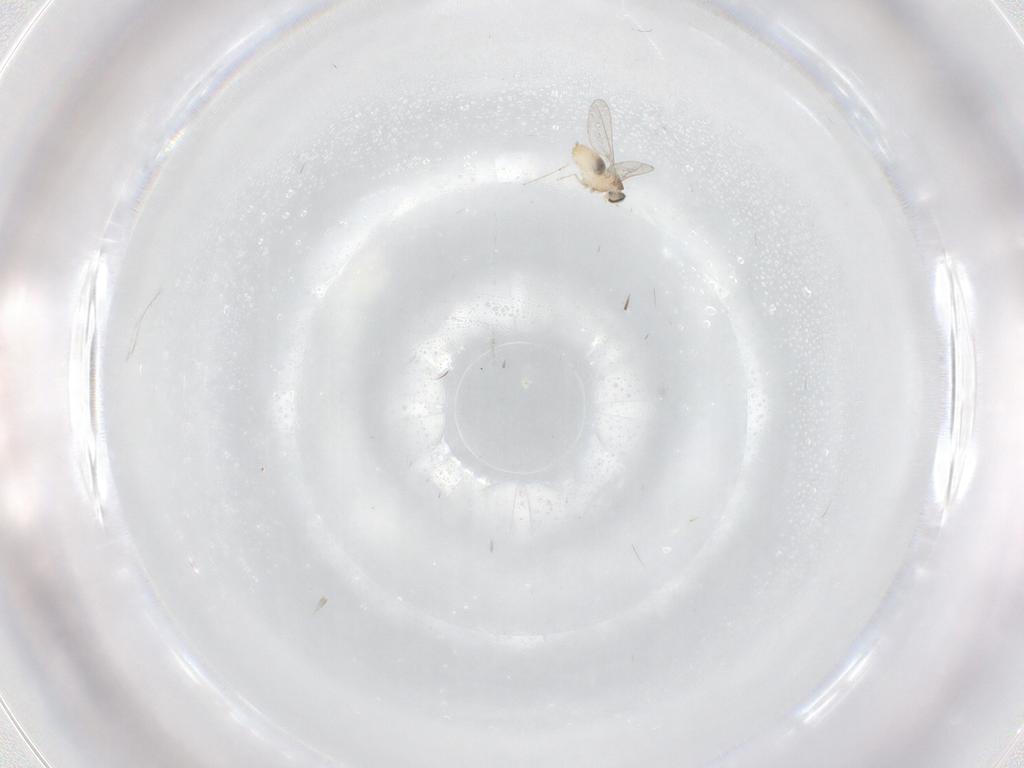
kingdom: Animalia
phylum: Arthropoda
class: Insecta
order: Diptera
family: Cecidomyiidae
